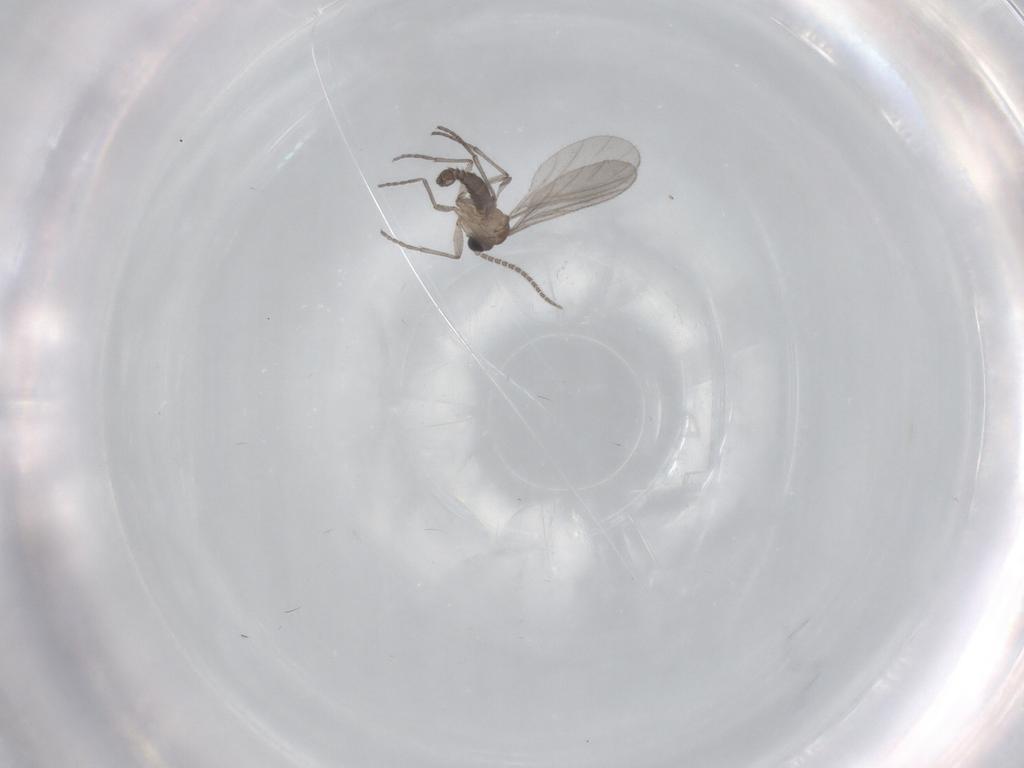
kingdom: Animalia
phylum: Arthropoda
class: Insecta
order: Diptera
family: Sciaridae
